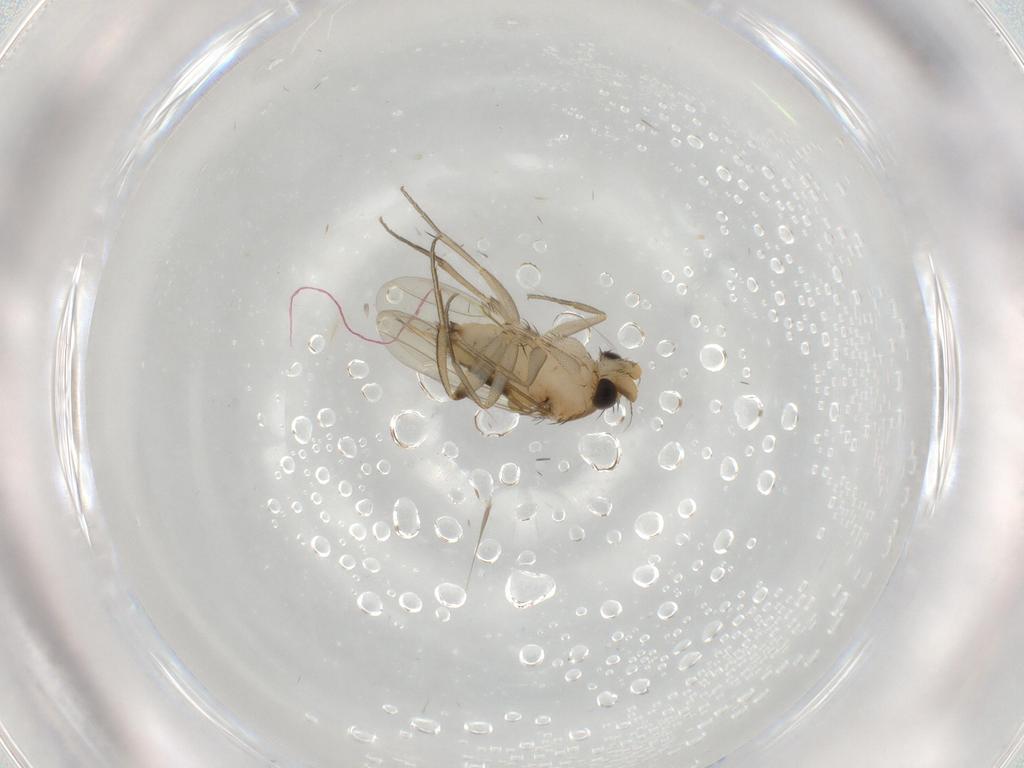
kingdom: Animalia
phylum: Arthropoda
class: Insecta
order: Diptera
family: Phoridae
